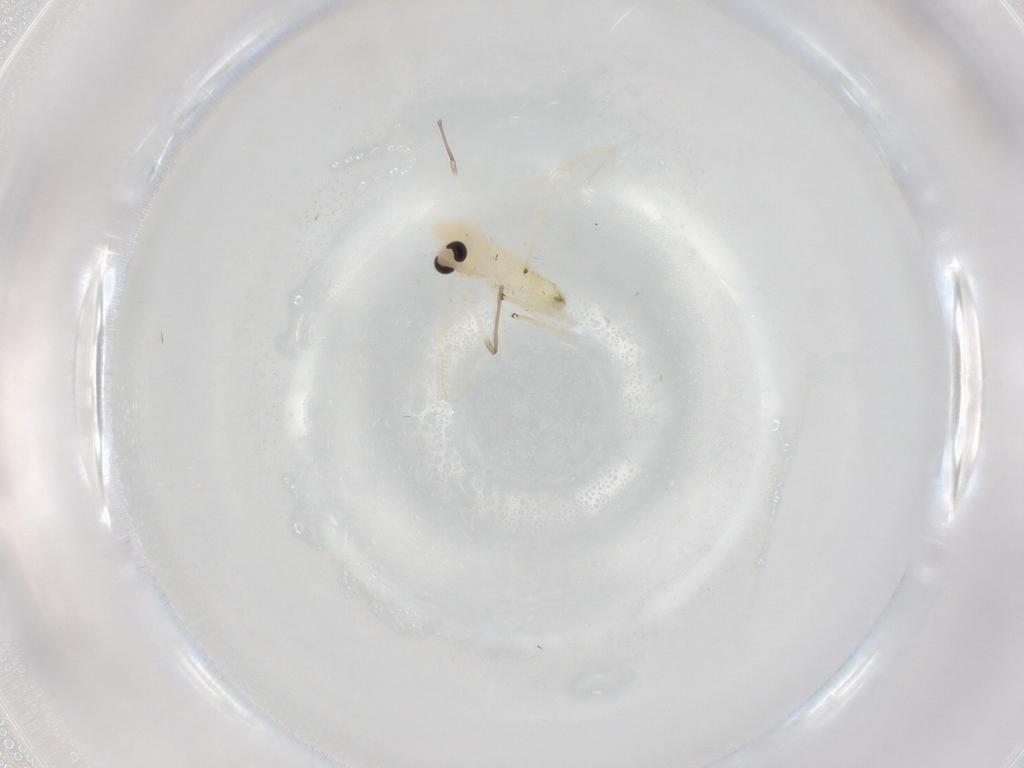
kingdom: Animalia
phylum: Arthropoda
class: Insecta
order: Diptera
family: Chironomidae
